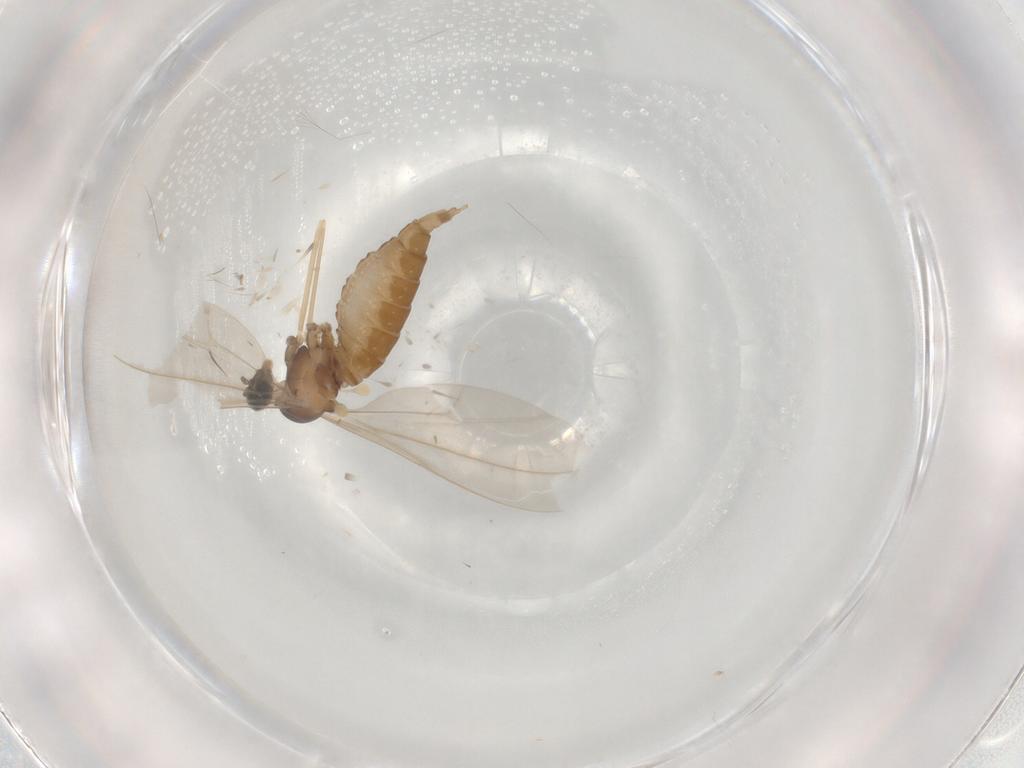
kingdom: Animalia
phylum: Arthropoda
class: Insecta
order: Diptera
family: Cecidomyiidae
